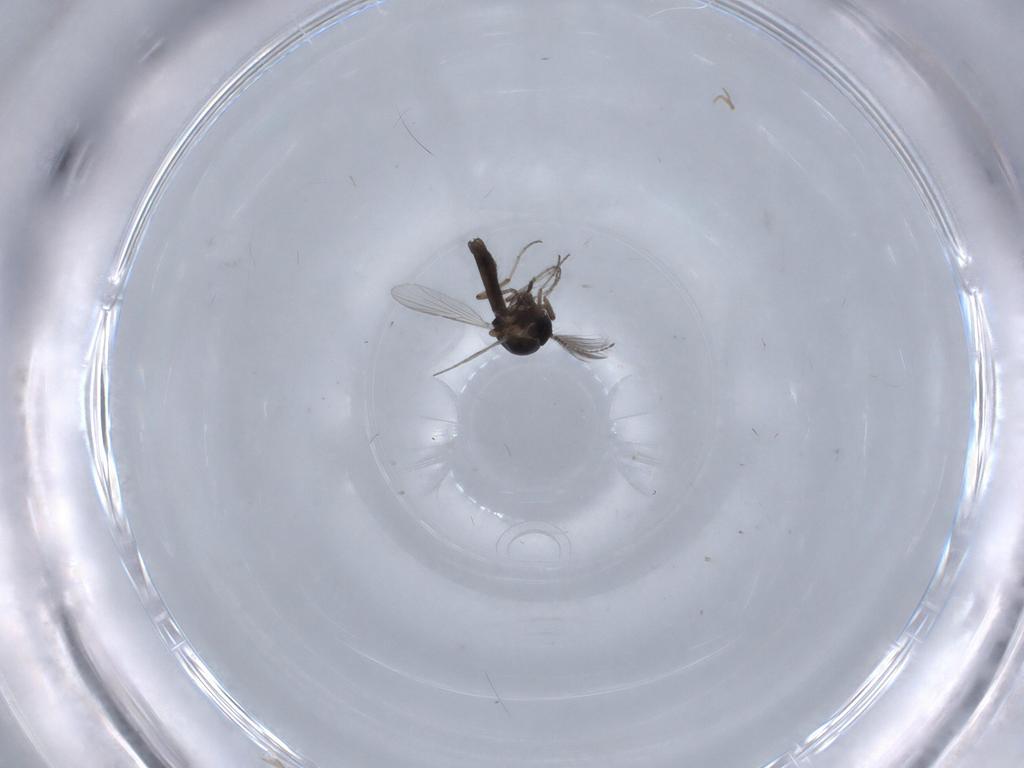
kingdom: Animalia
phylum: Arthropoda
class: Insecta
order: Diptera
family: Ceratopogonidae
